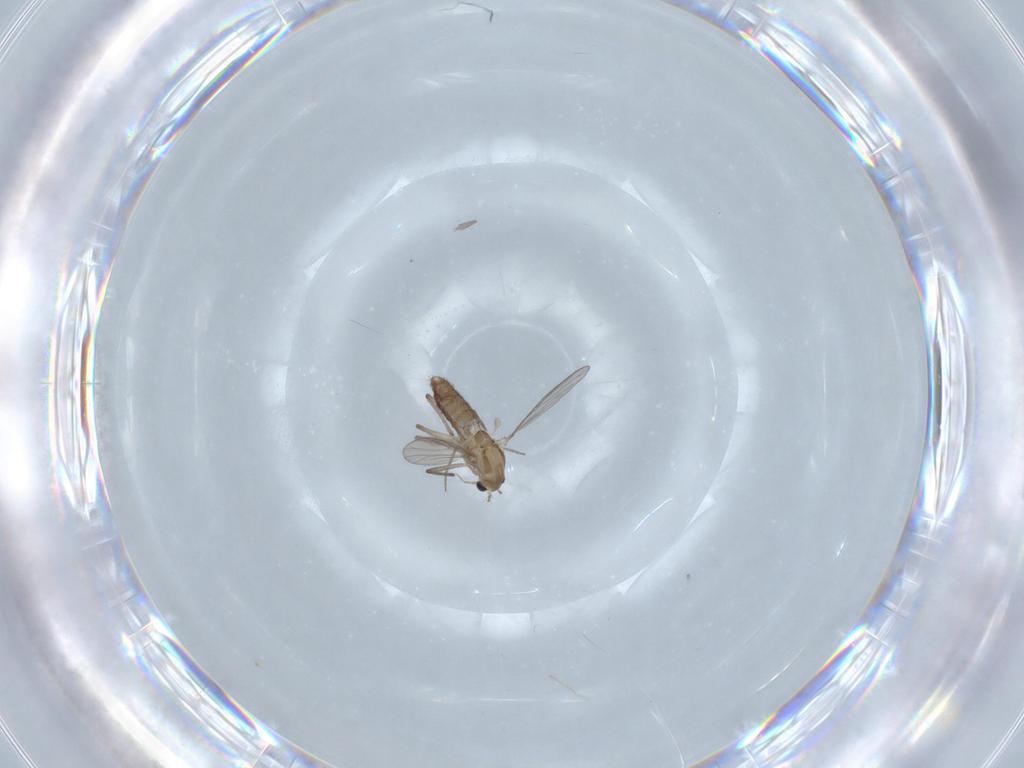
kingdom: Animalia
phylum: Arthropoda
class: Insecta
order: Diptera
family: Chironomidae
